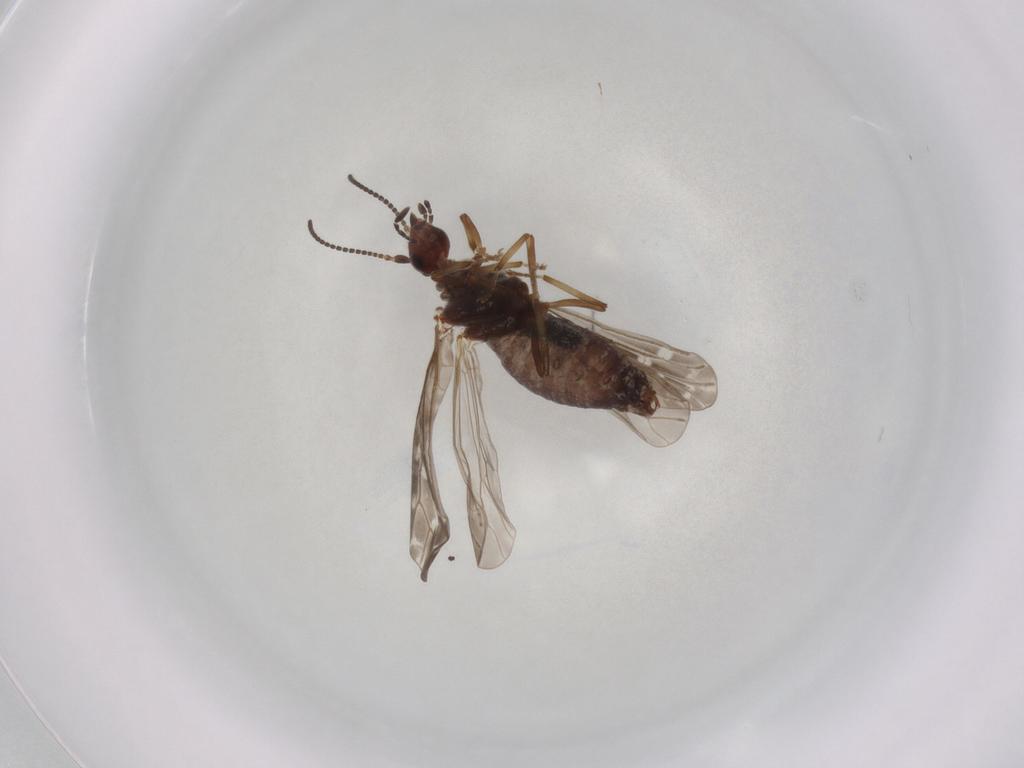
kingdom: Animalia
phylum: Arthropoda
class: Insecta
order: Neuroptera
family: Coniopterygidae
